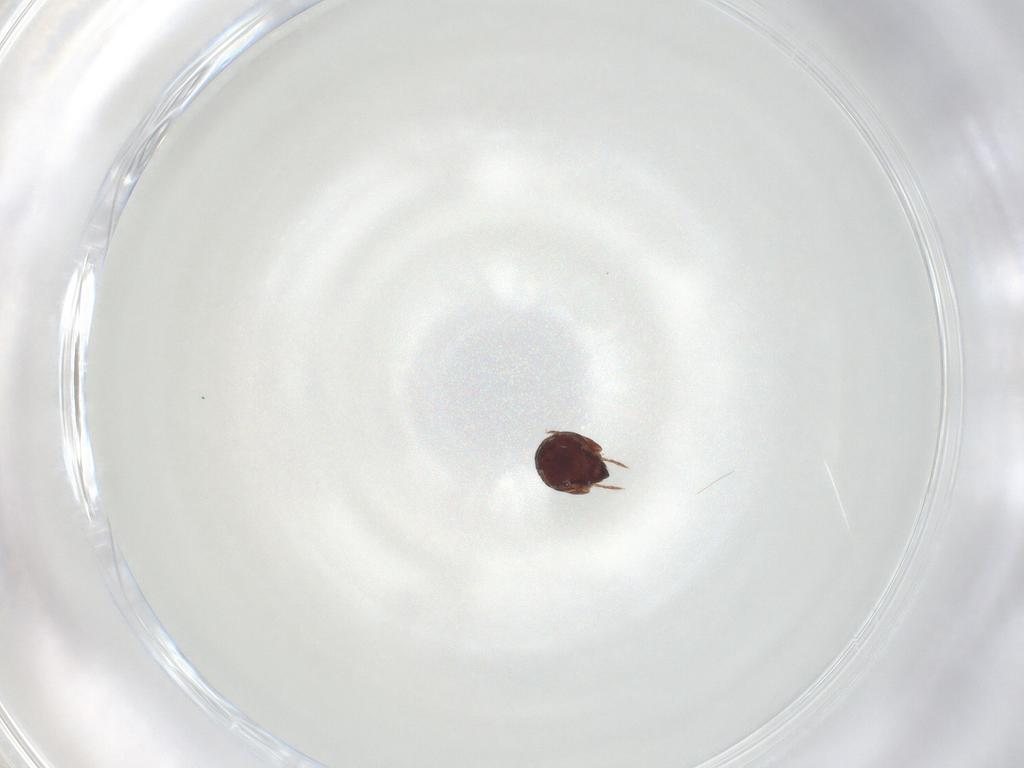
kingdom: Animalia
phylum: Arthropoda
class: Arachnida
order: Sarcoptiformes
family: Humerobatidae
